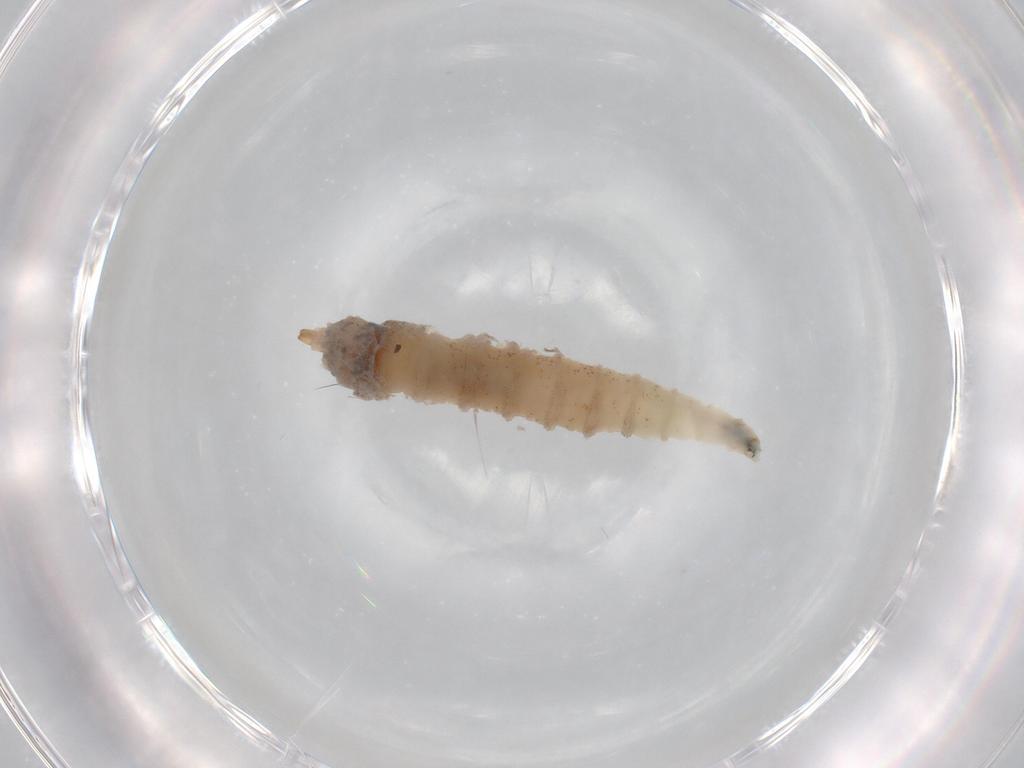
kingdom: Animalia
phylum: Arthropoda
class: Insecta
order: Diptera
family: Drosophilidae
